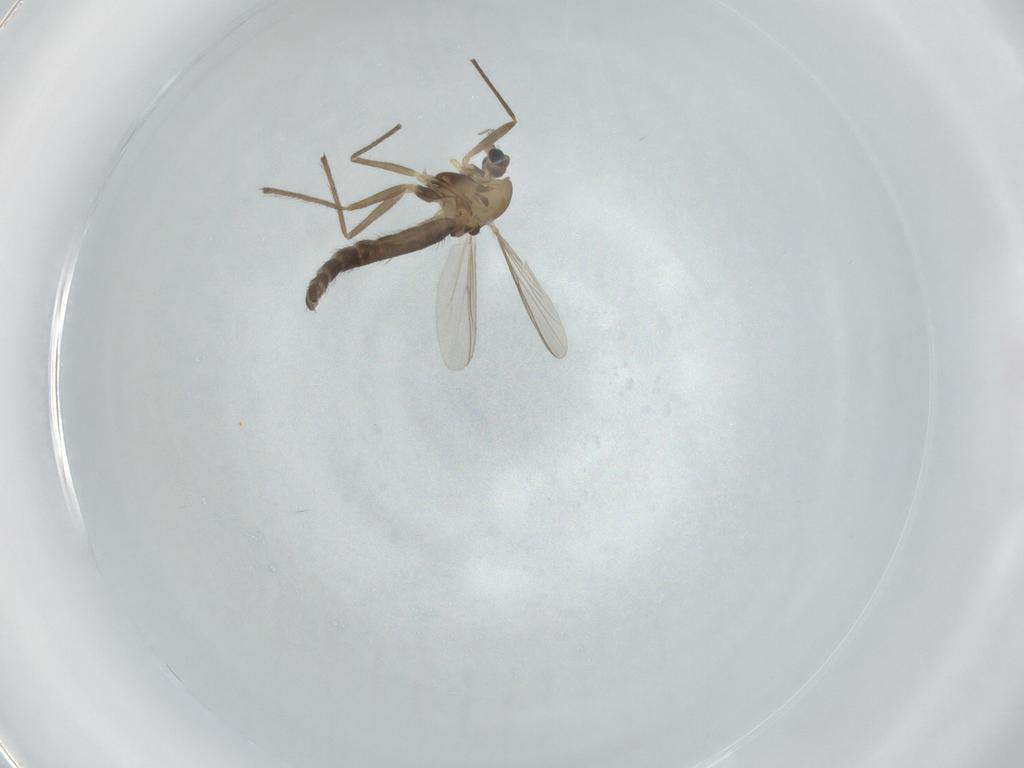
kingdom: Animalia
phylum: Arthropoda
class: Insecta
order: Diptera
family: Chironomidae
